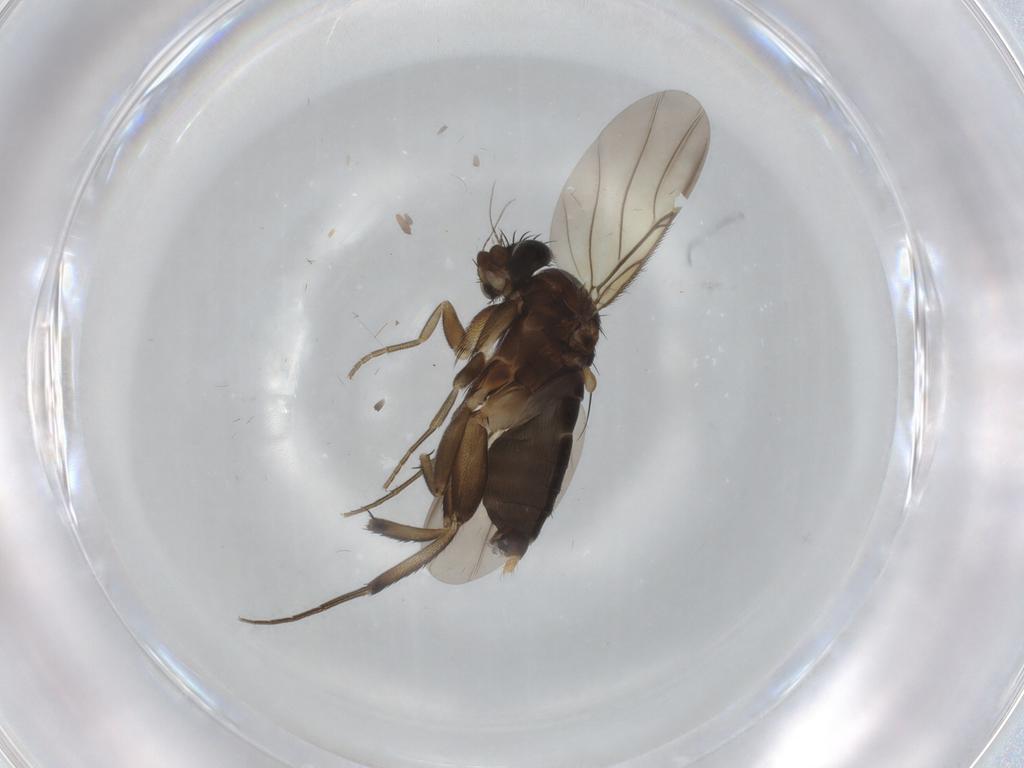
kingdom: Animalia
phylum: Arthropoda
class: Insecta
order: Diptera
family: Phoridae
